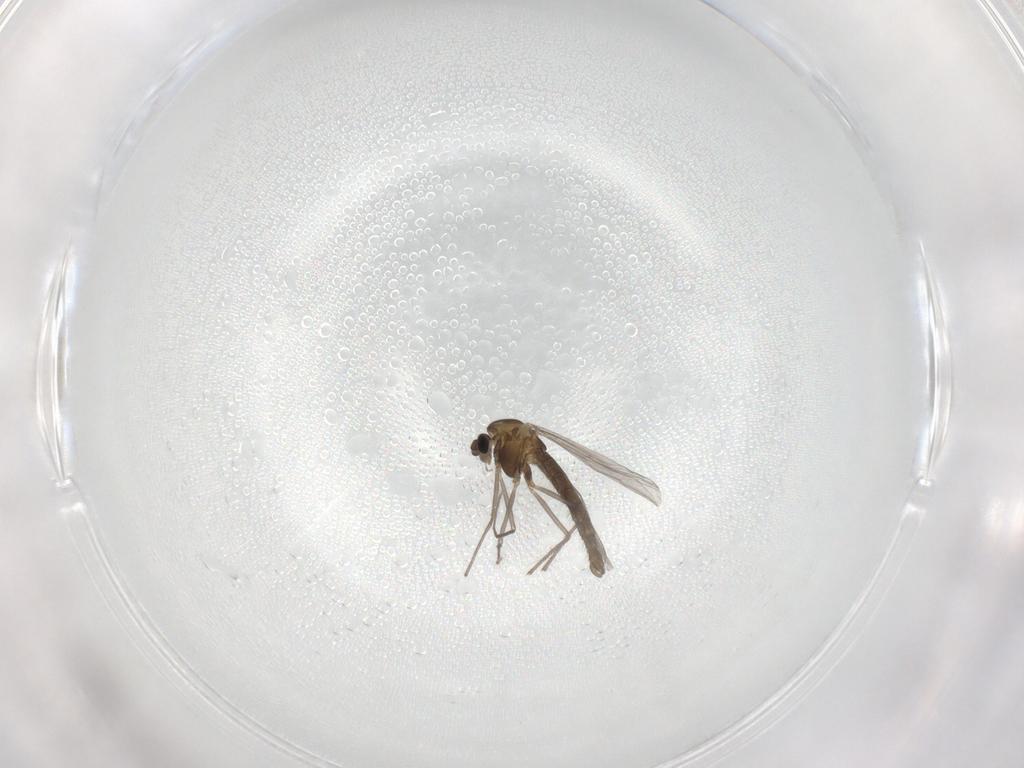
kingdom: Animalia
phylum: Arthropoda
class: Insecta
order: Diptera
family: Chironomidae
